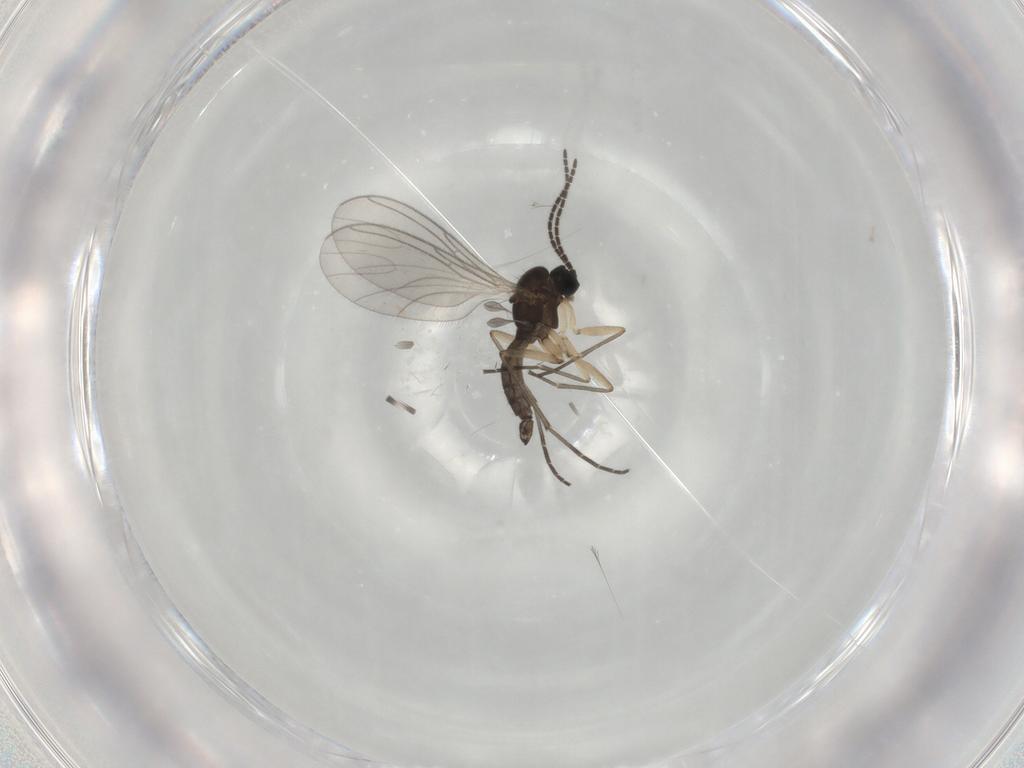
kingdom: Animalia
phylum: Arthropoda
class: Insecta
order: Diptera
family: Sciaridae
